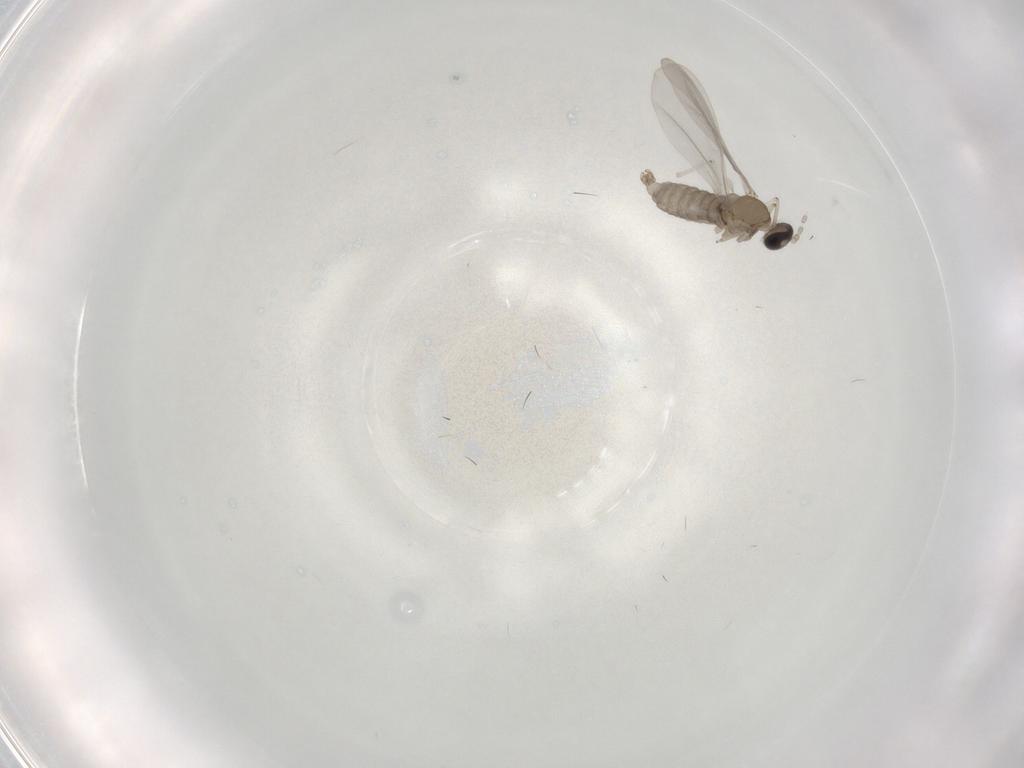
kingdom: Animalia
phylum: Arthropoda
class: Insecta
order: Diptera
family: Cecidomyiidae
